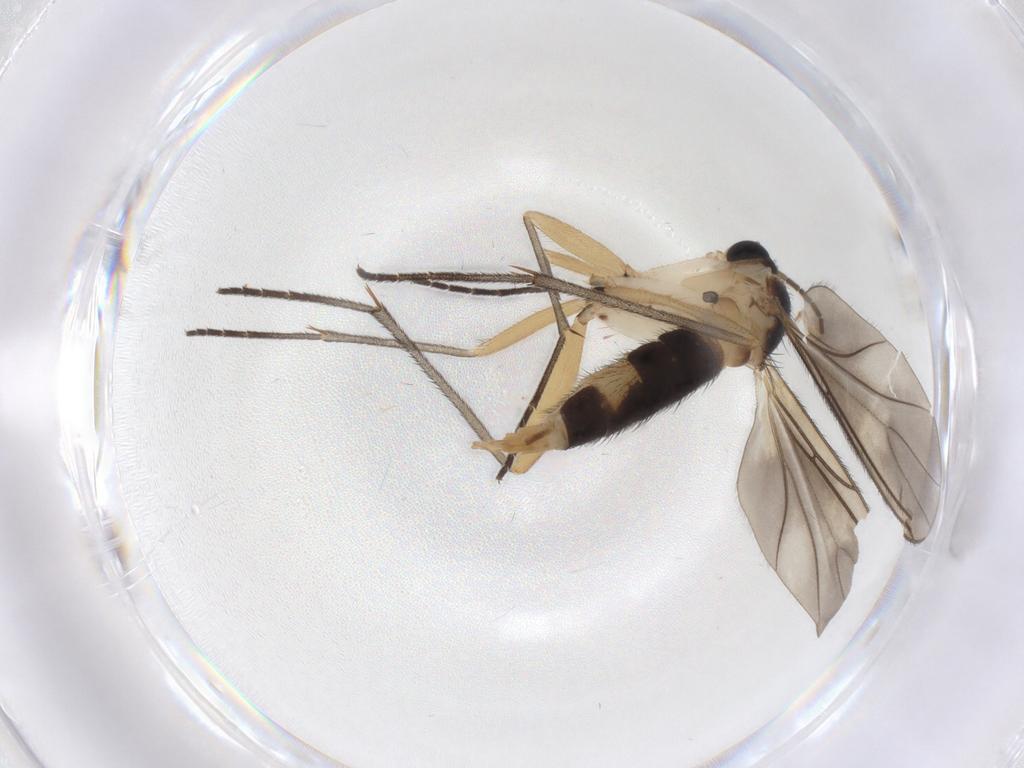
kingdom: Animalia
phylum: Arthropoda
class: Insecta
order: Diptera
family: Sciaridae
